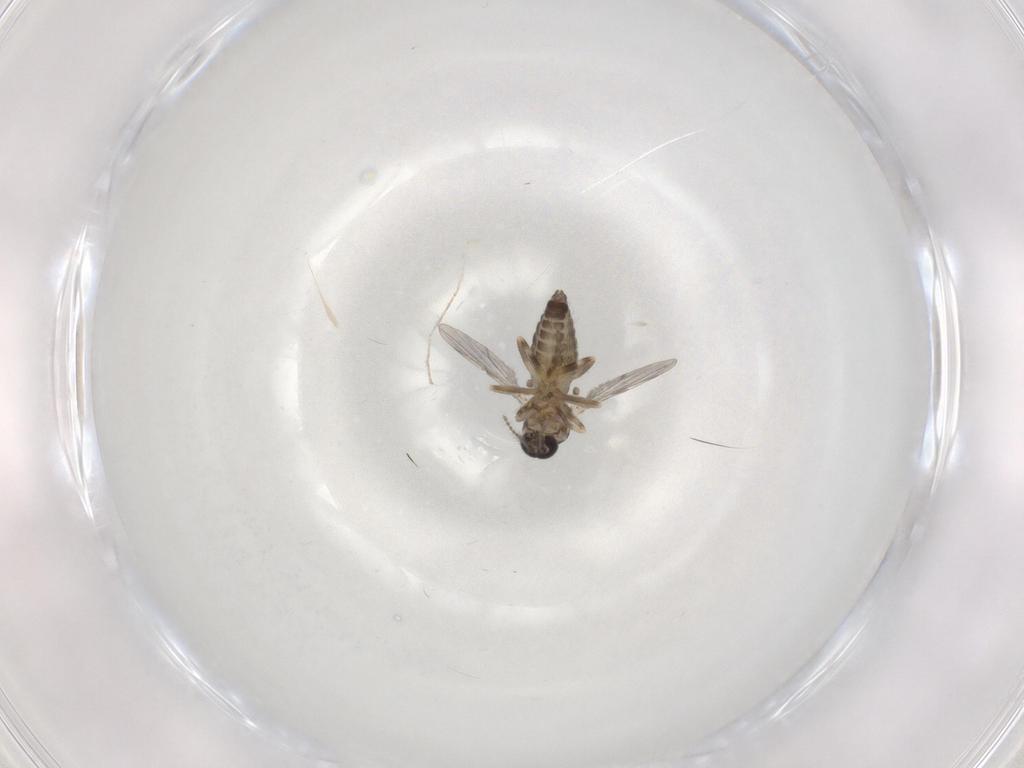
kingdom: Animalia
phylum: Arthropoda
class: Insecta
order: Diptera
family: Ceratopogonidae
